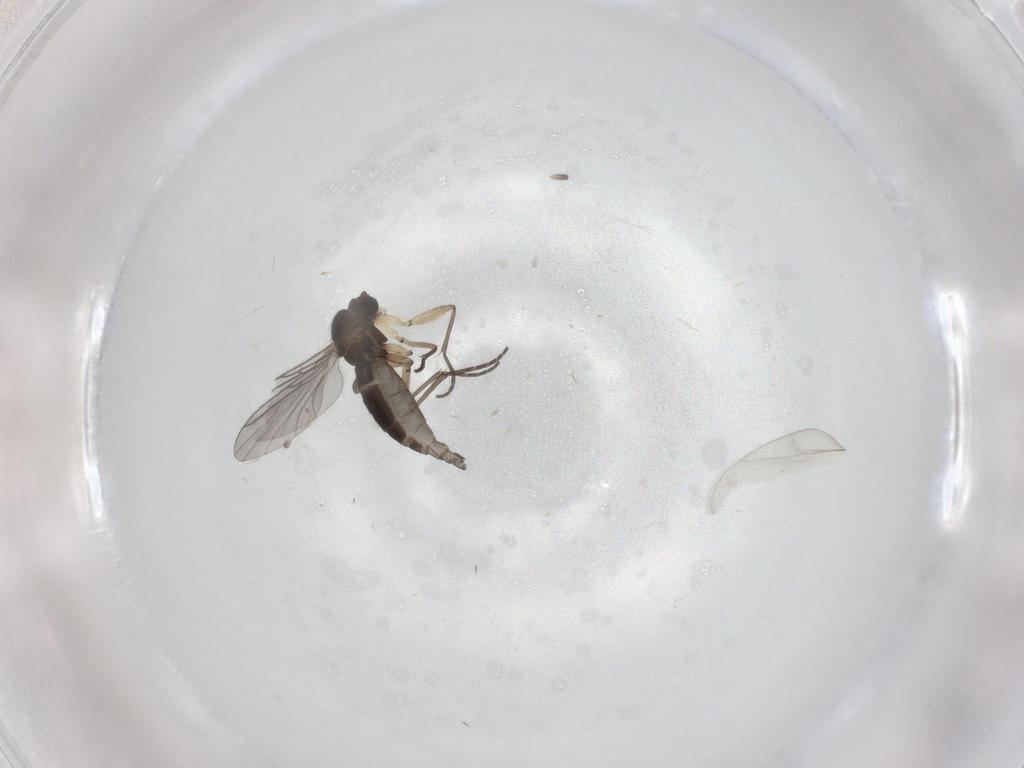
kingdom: Animalia
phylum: Arthropoda
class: Insecta
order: Diptera
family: Sciaridae
